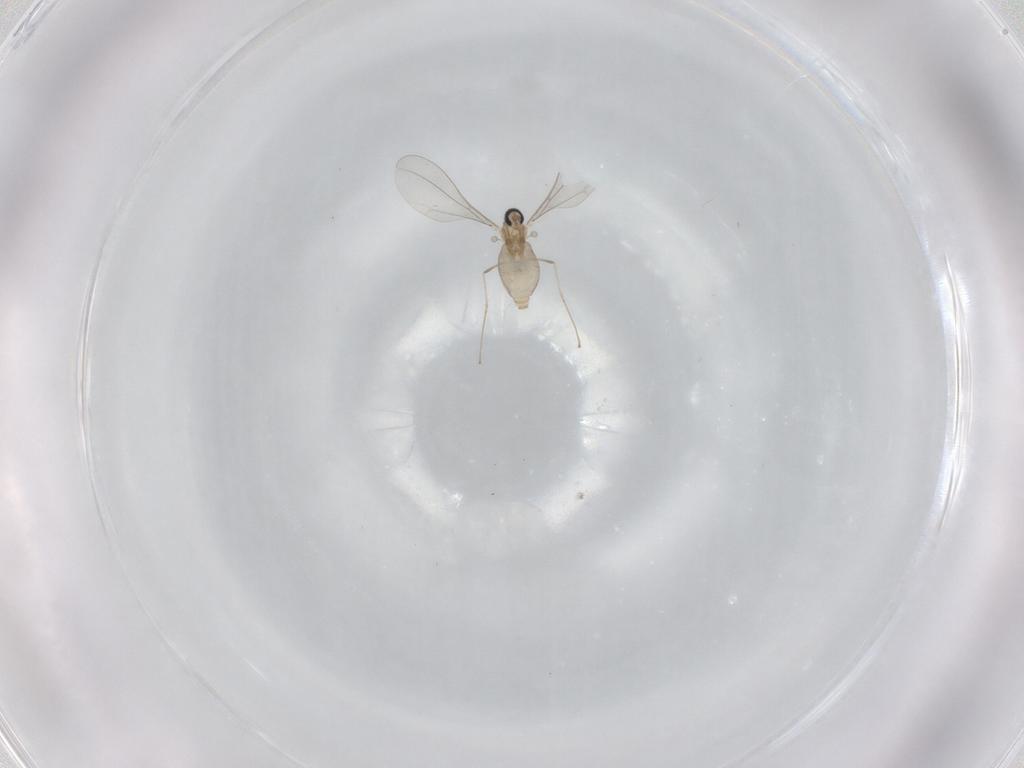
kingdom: Animalia
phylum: Arthropoda
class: Insecta
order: Diptera
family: Cecidomyiidae
